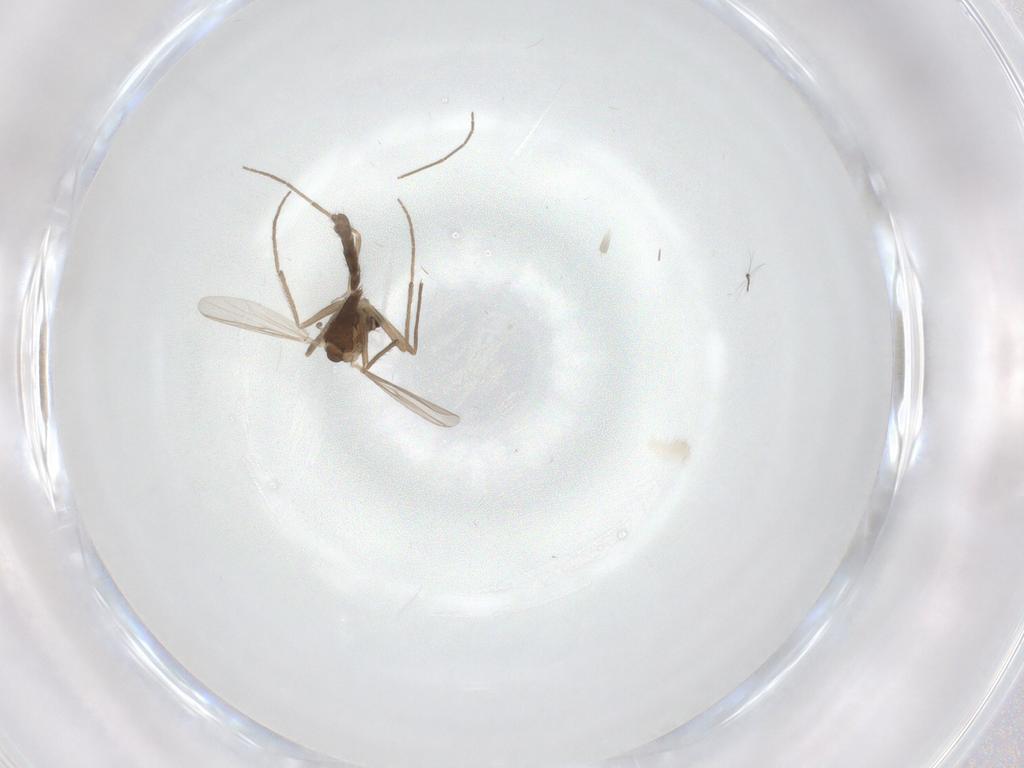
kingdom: Animalia
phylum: Arthropoda
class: Insecta
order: Diptera
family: Chironomidae
